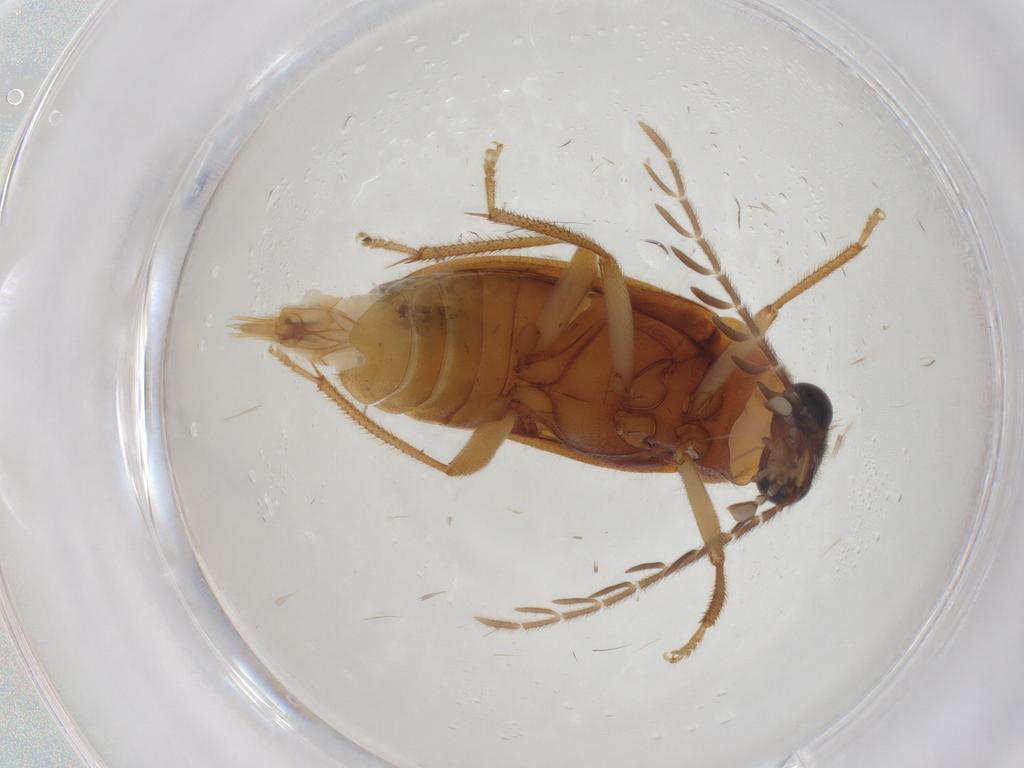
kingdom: Animalia
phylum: Arthropoda
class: Insecta
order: Coleoptera
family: Ptilodactylidae
